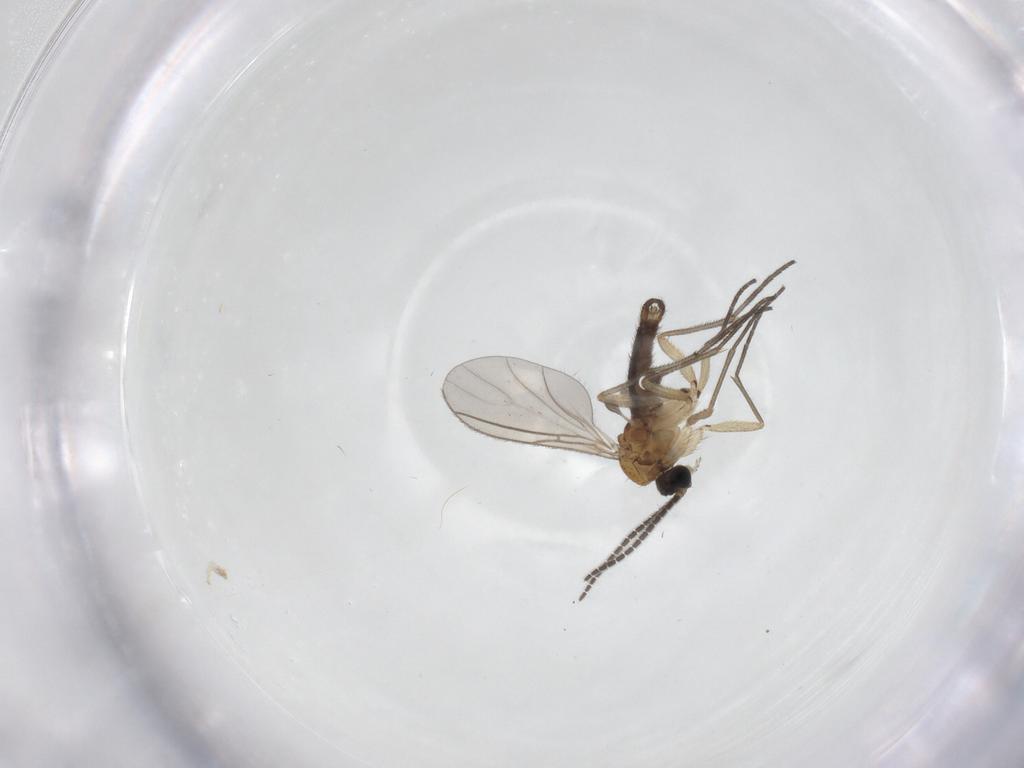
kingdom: Animalia
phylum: Arthropoda
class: Insecta
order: Diptera
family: Sciaridae
